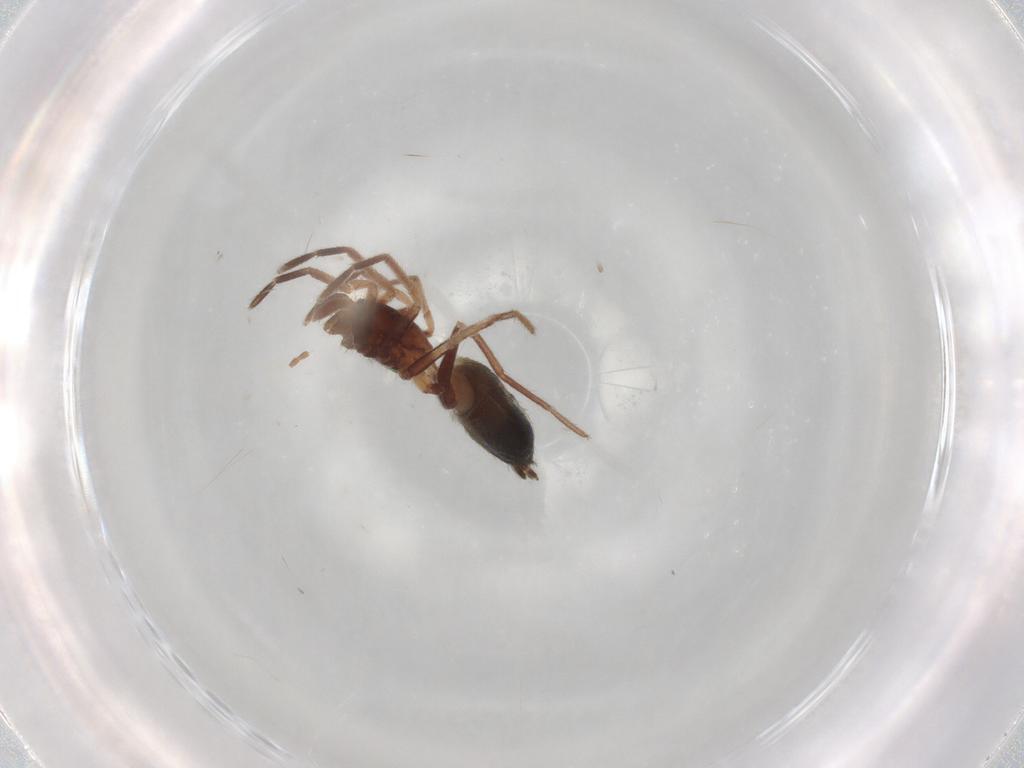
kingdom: Animalia
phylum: Arthropoda
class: Arachnida
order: Araneae
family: Gnaphosidae
